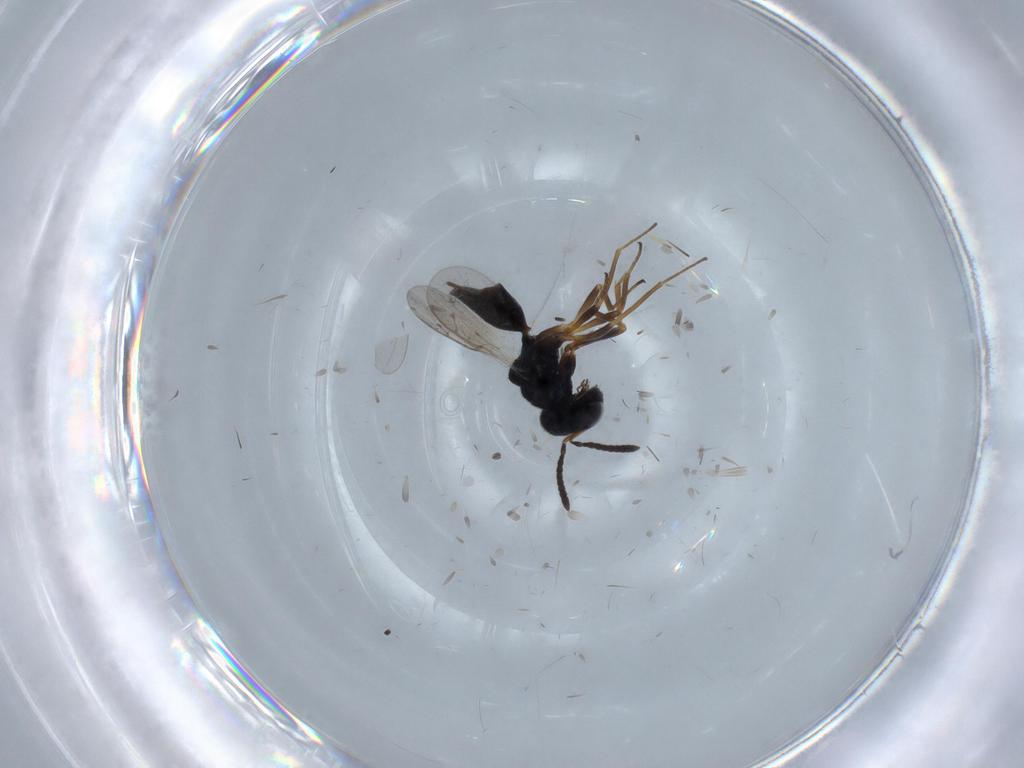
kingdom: Animalia
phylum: Arthropoda
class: Insecta
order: Hymenoptera
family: Pteromalidae
